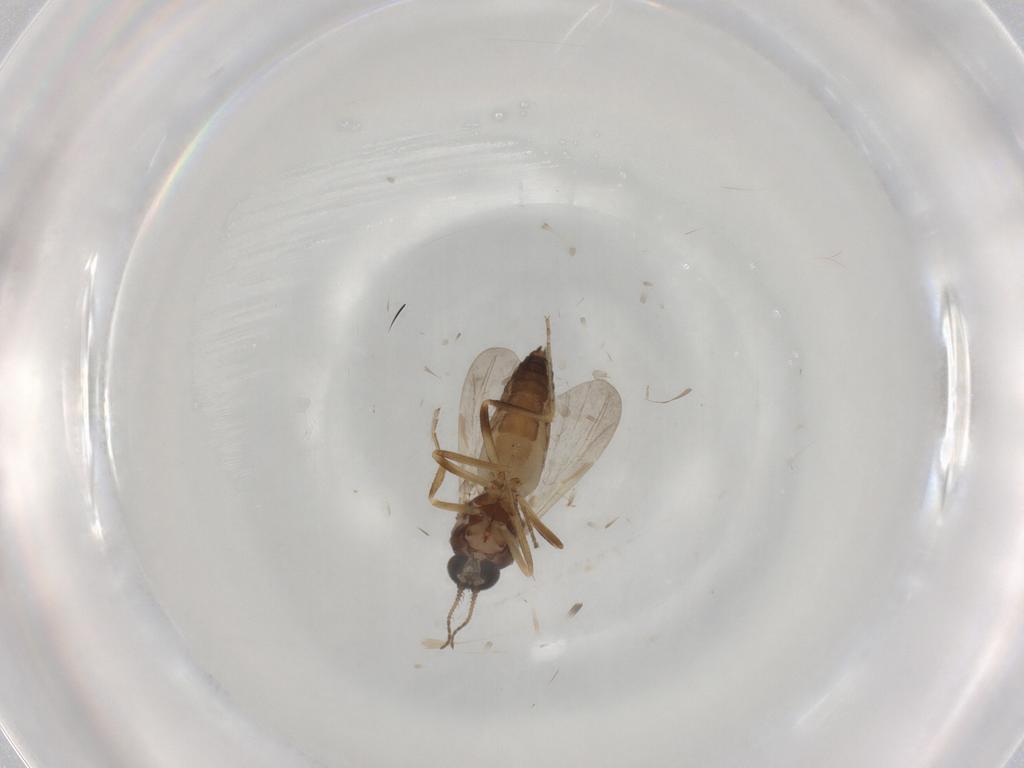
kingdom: Animalia
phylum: Arthropoda
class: Insecta
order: Diptera
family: Ceratopogonidae
